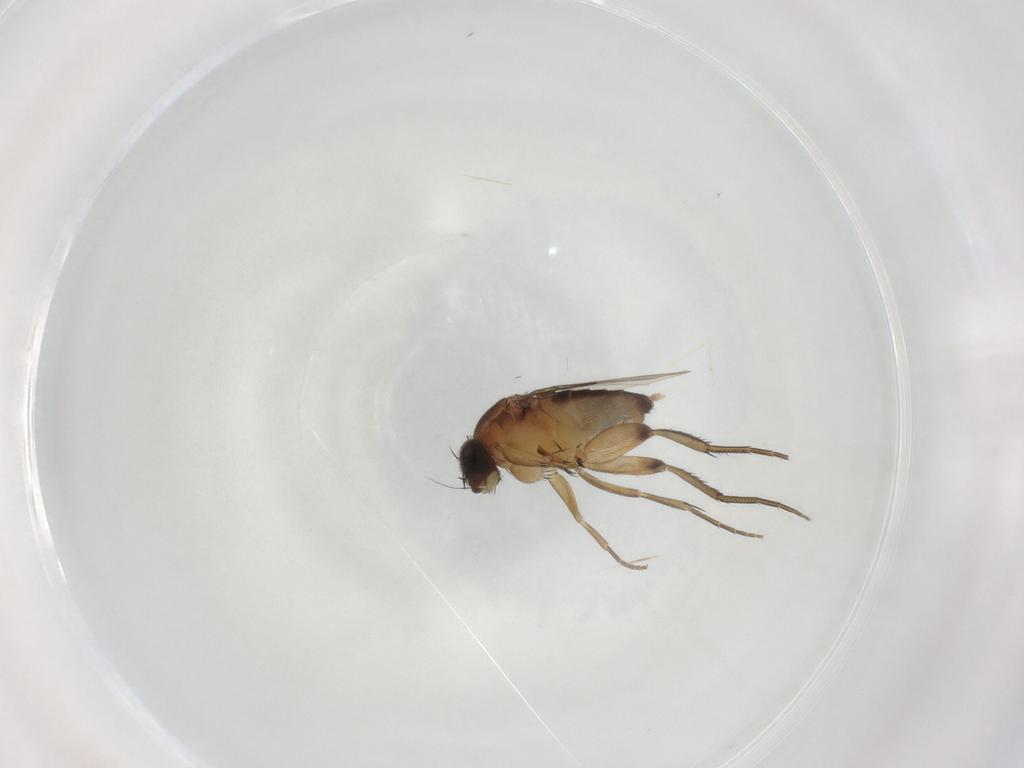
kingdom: Animalia
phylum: Arthropoda
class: Insecta
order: Diptera
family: Phoridae
